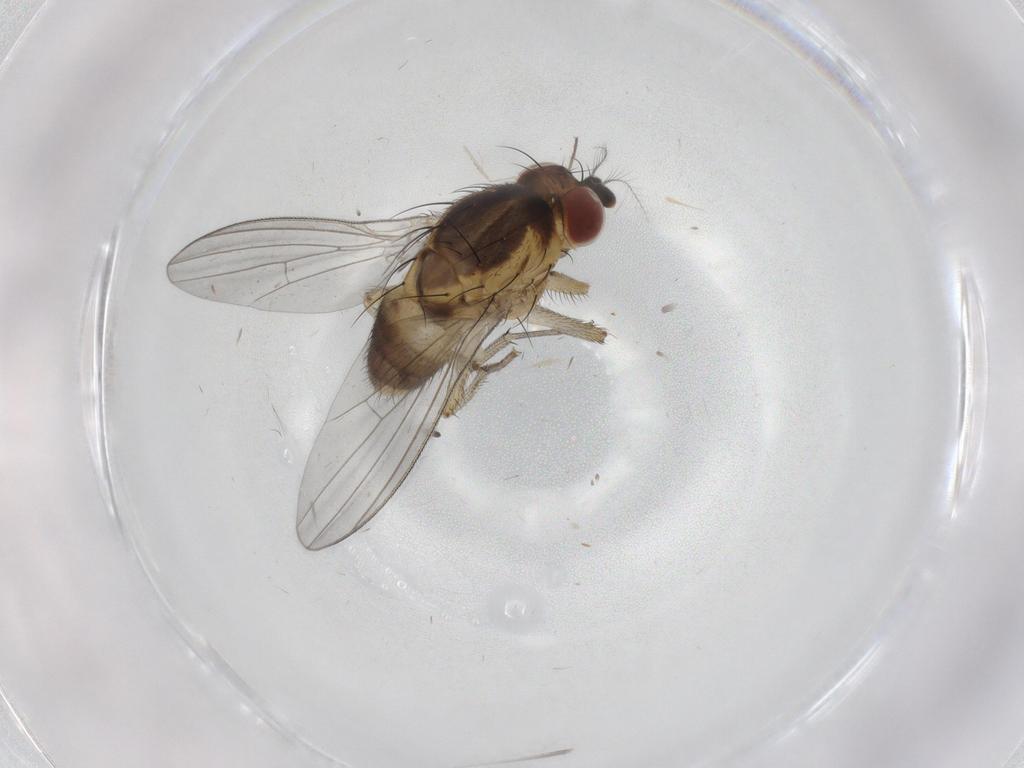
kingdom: Animalia
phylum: Arthropoda
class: Insecta
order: Diptera
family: Lauxaniidae
